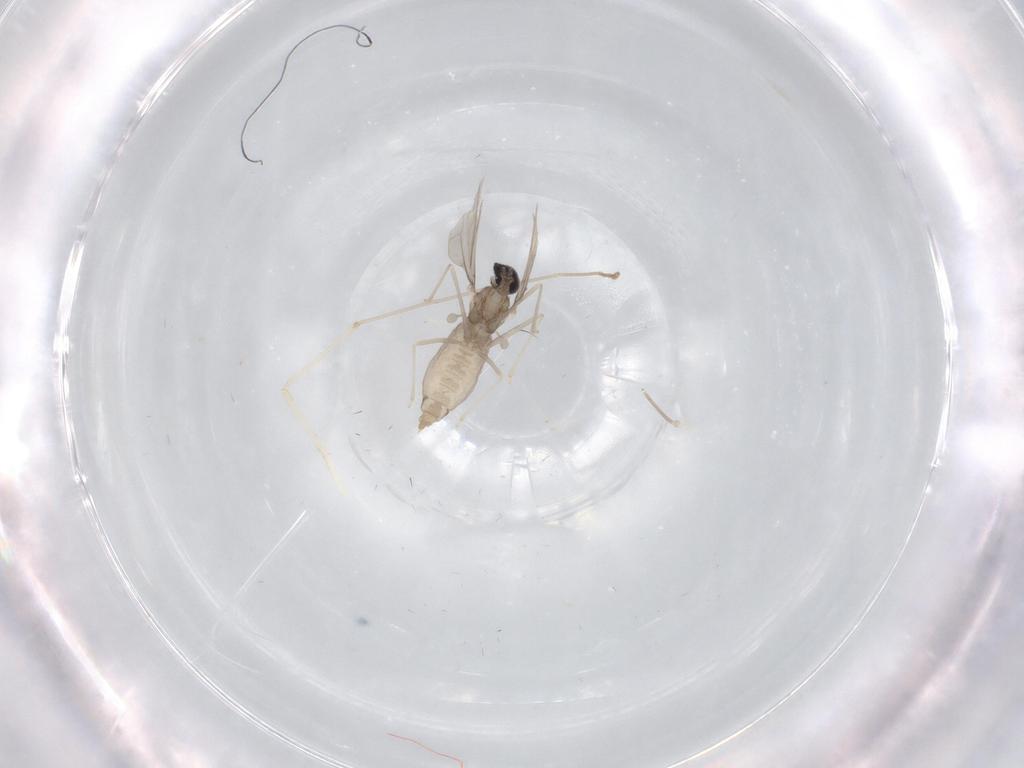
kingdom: Animalia
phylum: Arthropoda
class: Insecta
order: Diptera
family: Cecidomyiidae
